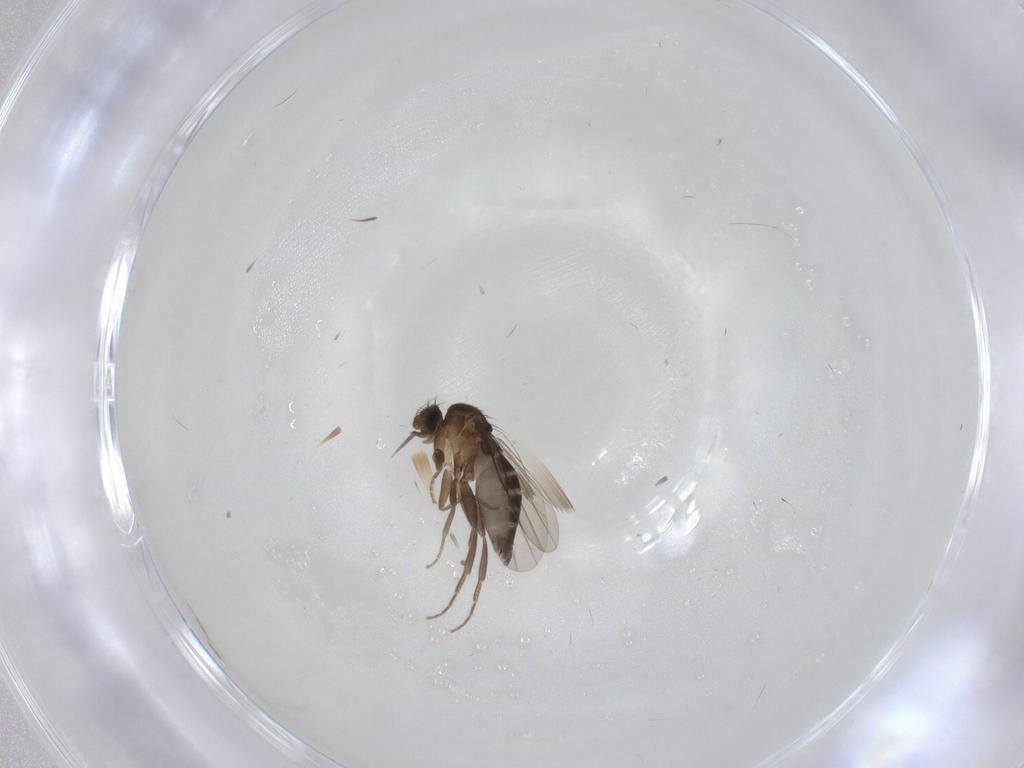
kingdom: Animalia
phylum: Arthropoda
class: Insecta
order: Diptera
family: Phoridae
